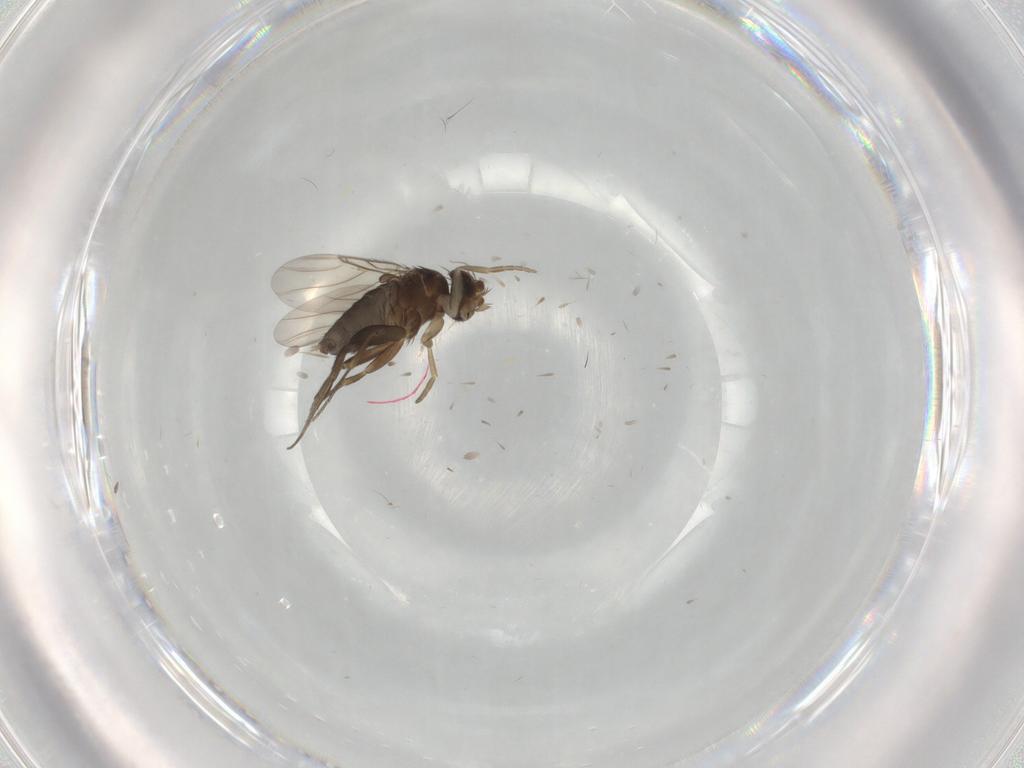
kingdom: Animalia
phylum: Arthropoda
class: Insecta
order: Diptera
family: Phoridae
